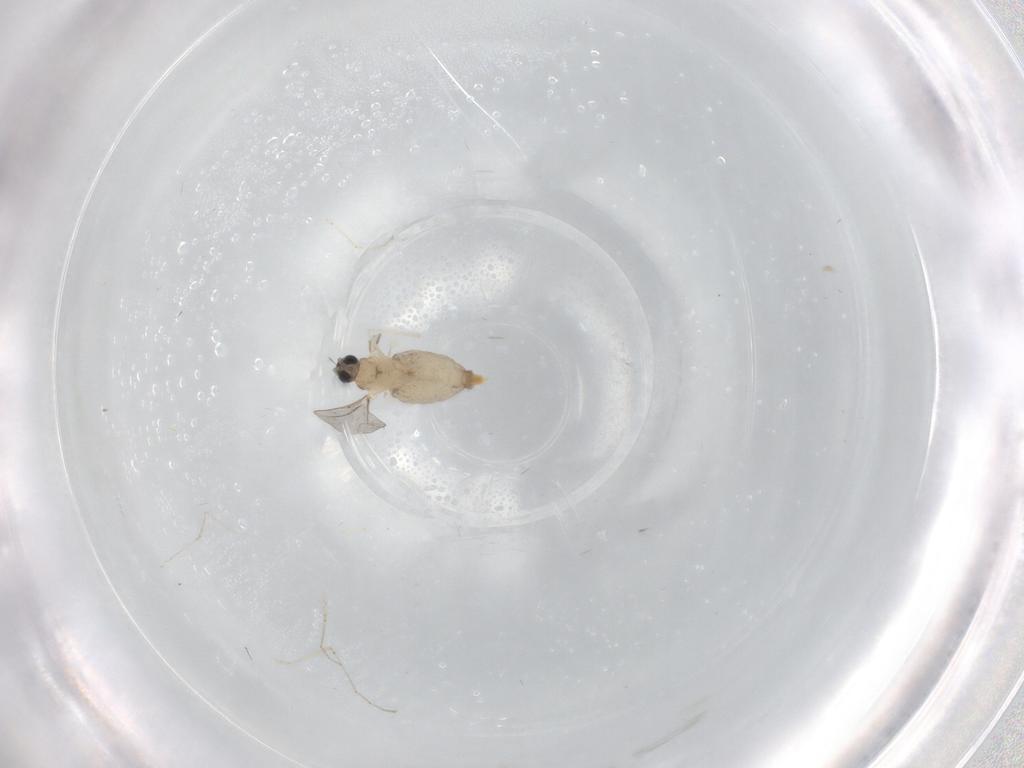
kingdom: Animalia
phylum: Arthropoda
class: Insecta
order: Diptera
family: Cecidomyiidae
